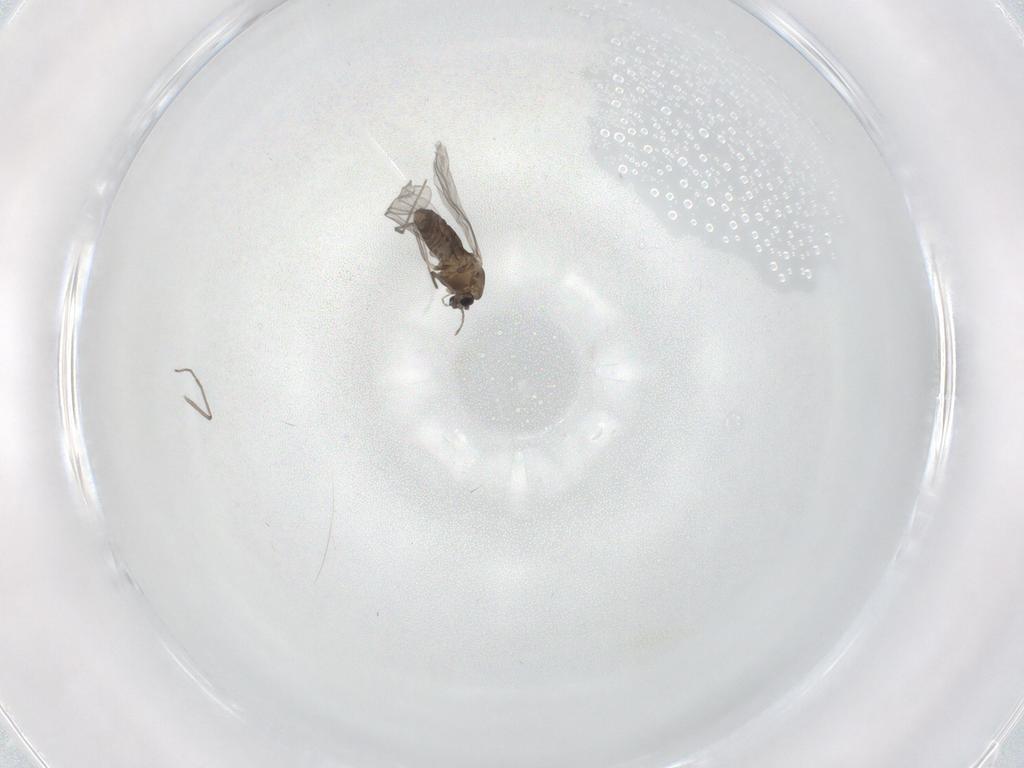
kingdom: Animalia
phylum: Arthropoda
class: Insecta
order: Diptera
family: Chironomidae
